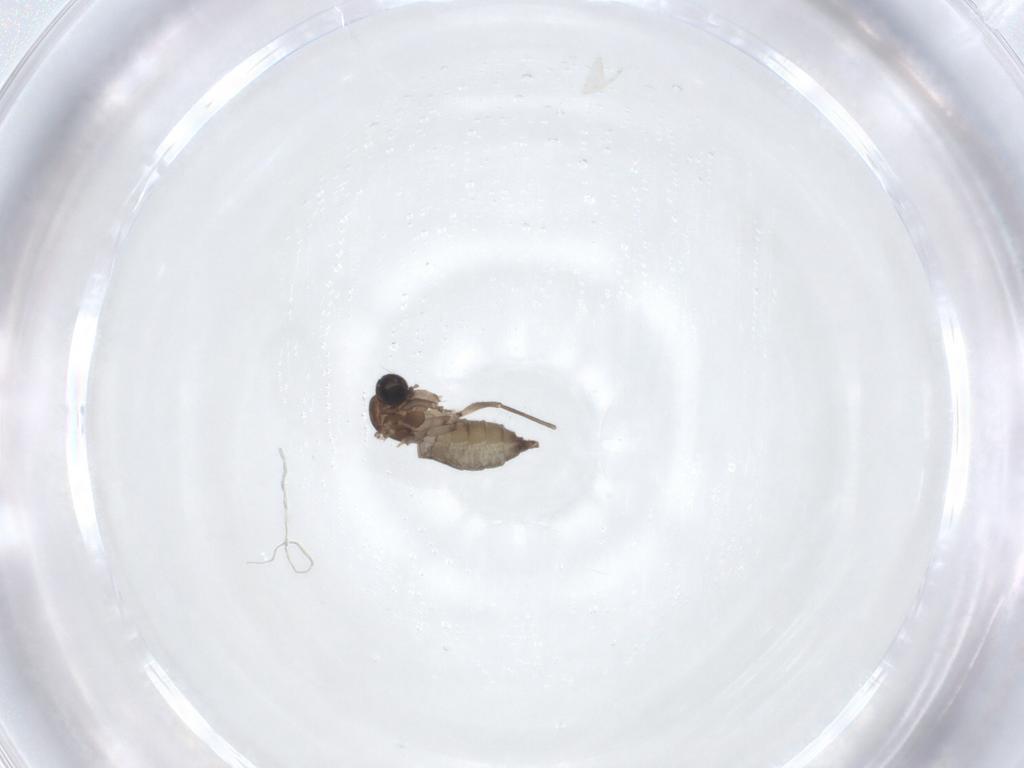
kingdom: Animalia
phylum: Arthropoda
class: Insecta
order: Diptera
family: Sciaridae
